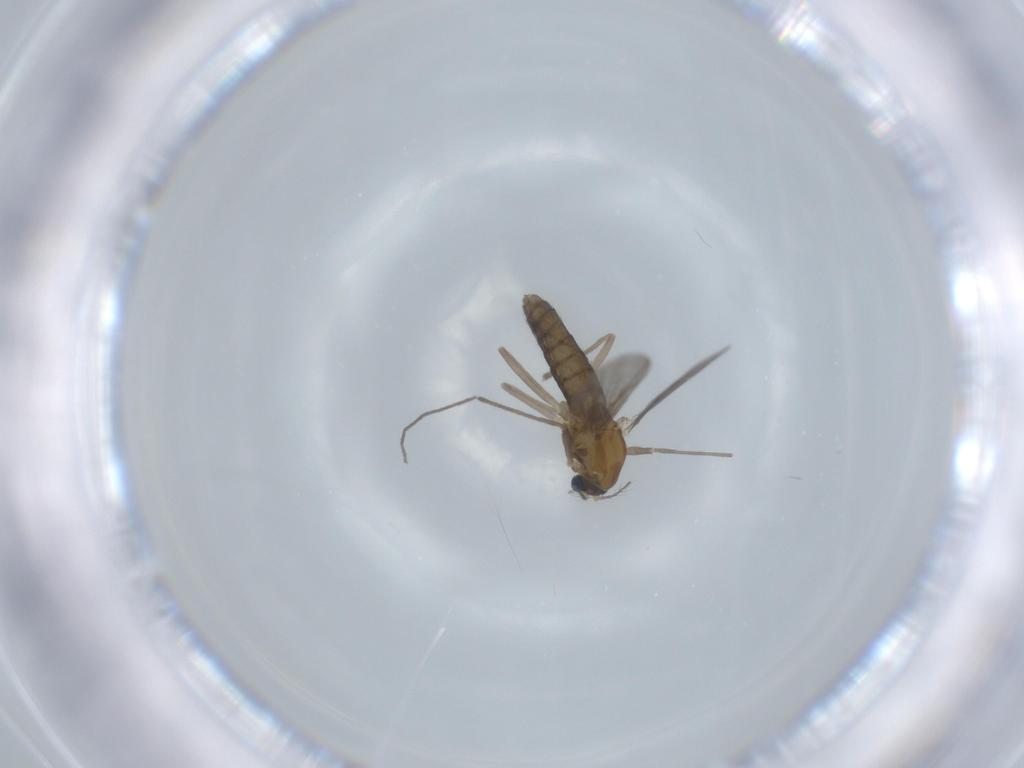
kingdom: Animalia
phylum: Arthropoda
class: Insecta
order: Diptera
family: Chironomidae
